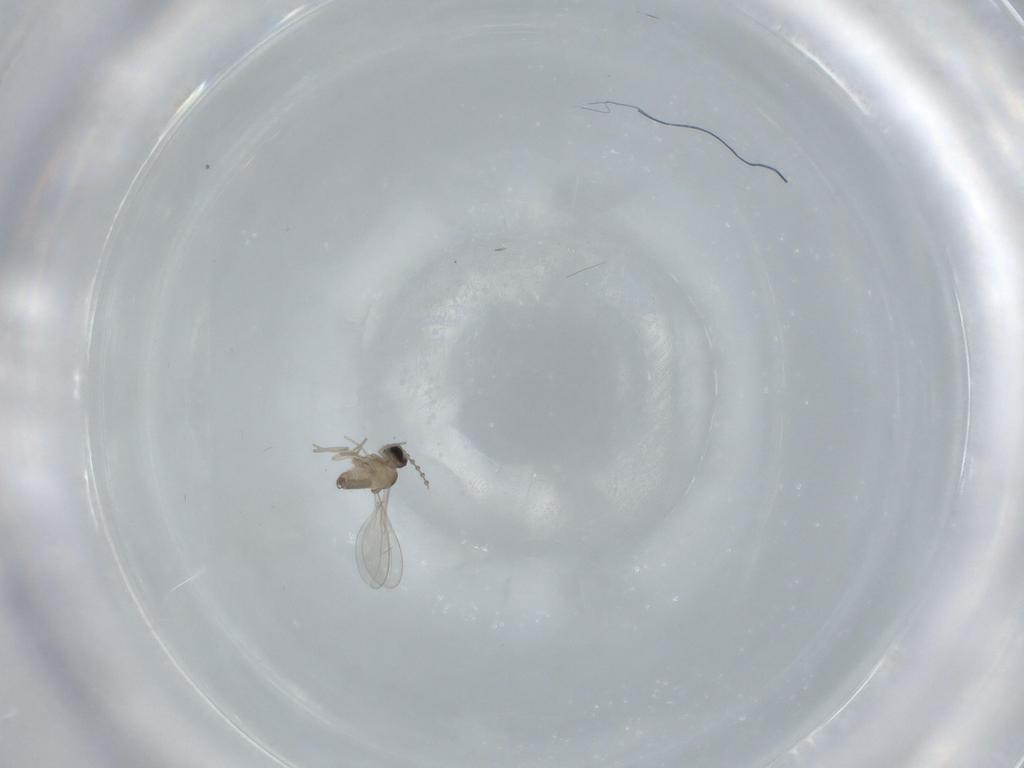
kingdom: Animalia
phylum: Arthropoda
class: Insecta
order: Diptera
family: Cecidomyiidae
